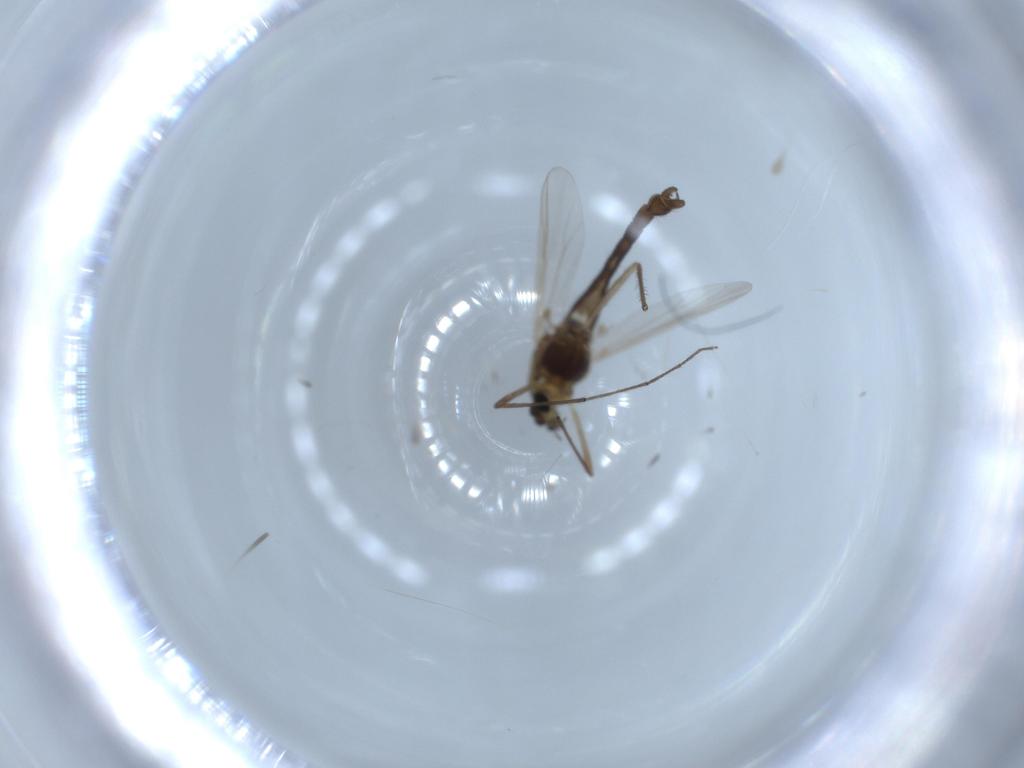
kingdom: Animalia
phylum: Arthropoda
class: Insecta
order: Diptera
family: Chironomidae
